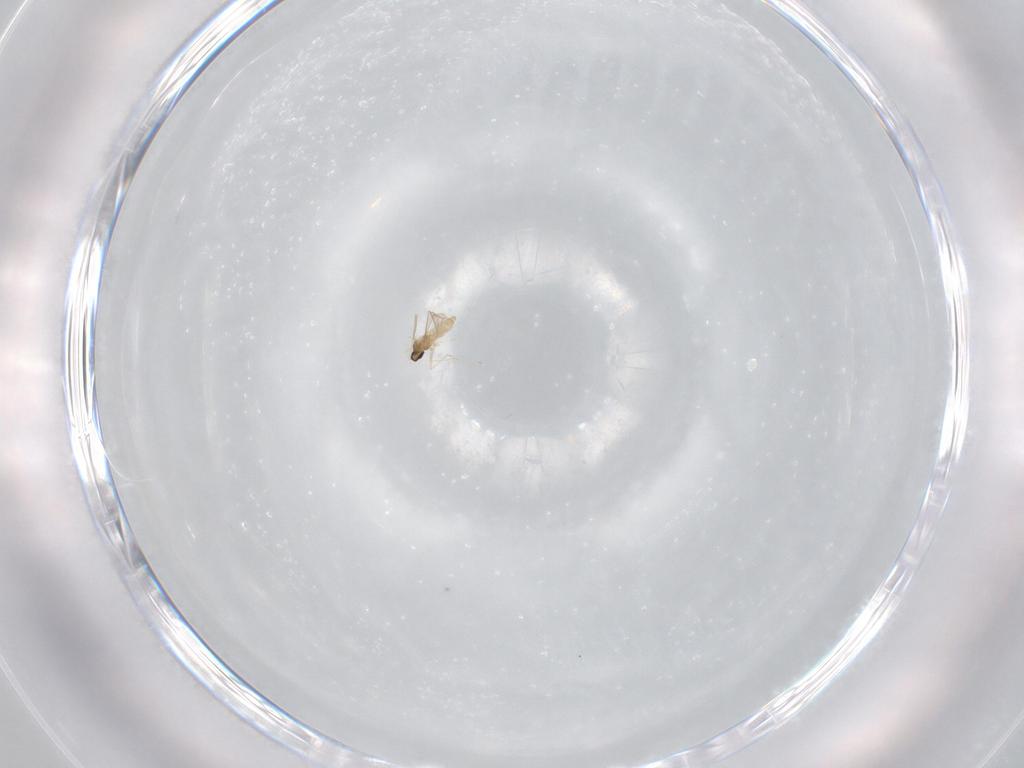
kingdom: Animalia
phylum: Arthropoda
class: Insecta
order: Diptera
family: Cecidomyiidae
